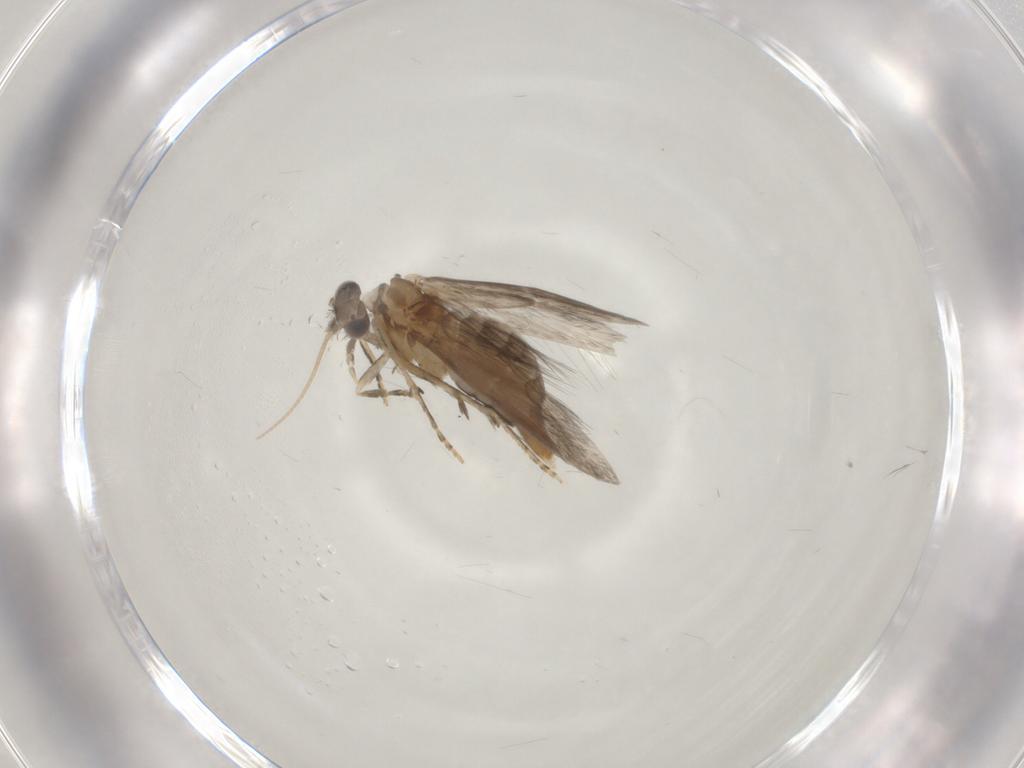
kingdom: Animalia
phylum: Arthropoda
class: Insecta
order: Trichoptera
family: Hydroptilidae
